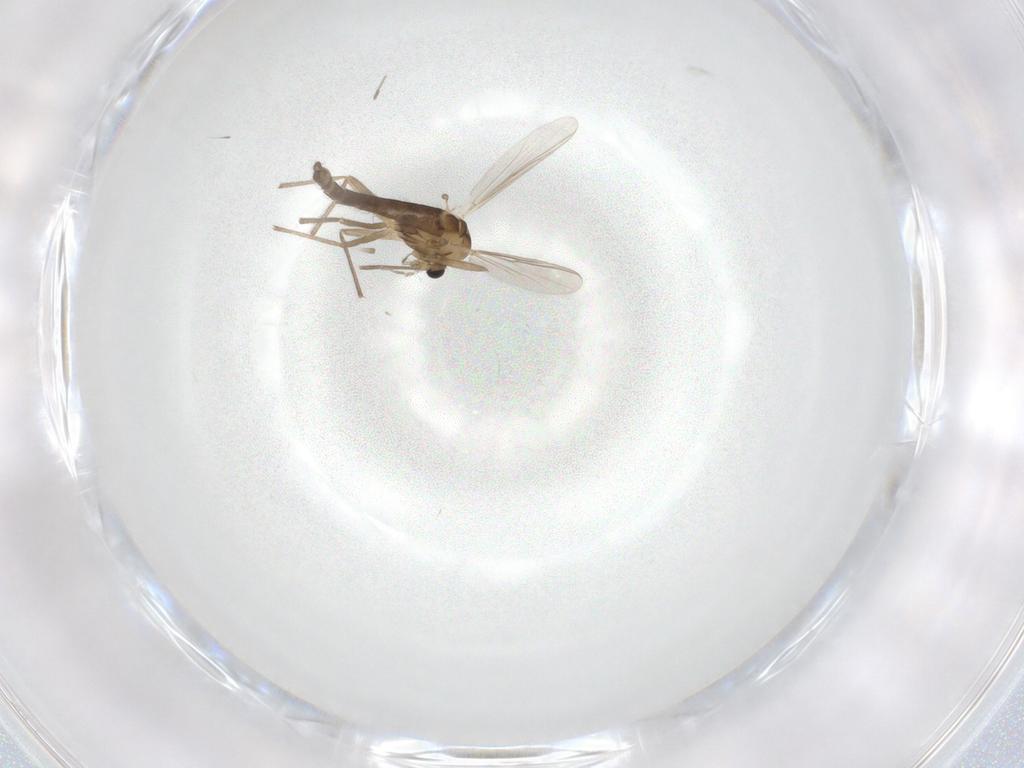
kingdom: Animalia
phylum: Arthropoda
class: Insecta
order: Diptera
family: Chironomidae
